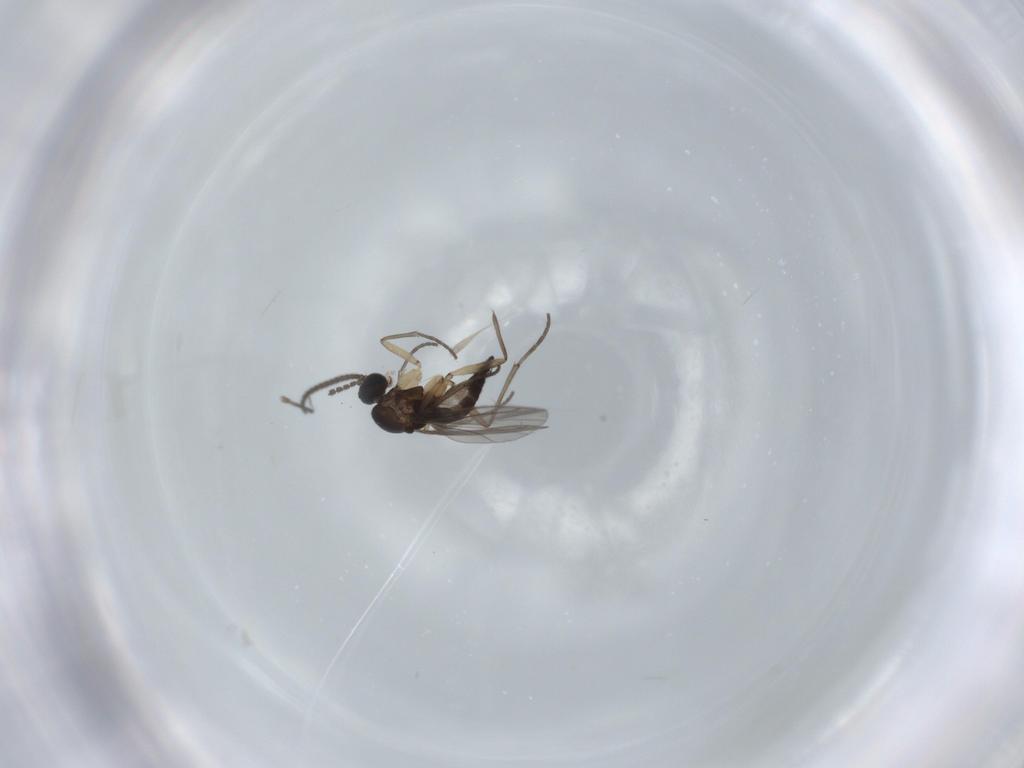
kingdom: Animalia
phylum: Arthropoda
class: Insecta
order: Diptera
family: Sciaridae
